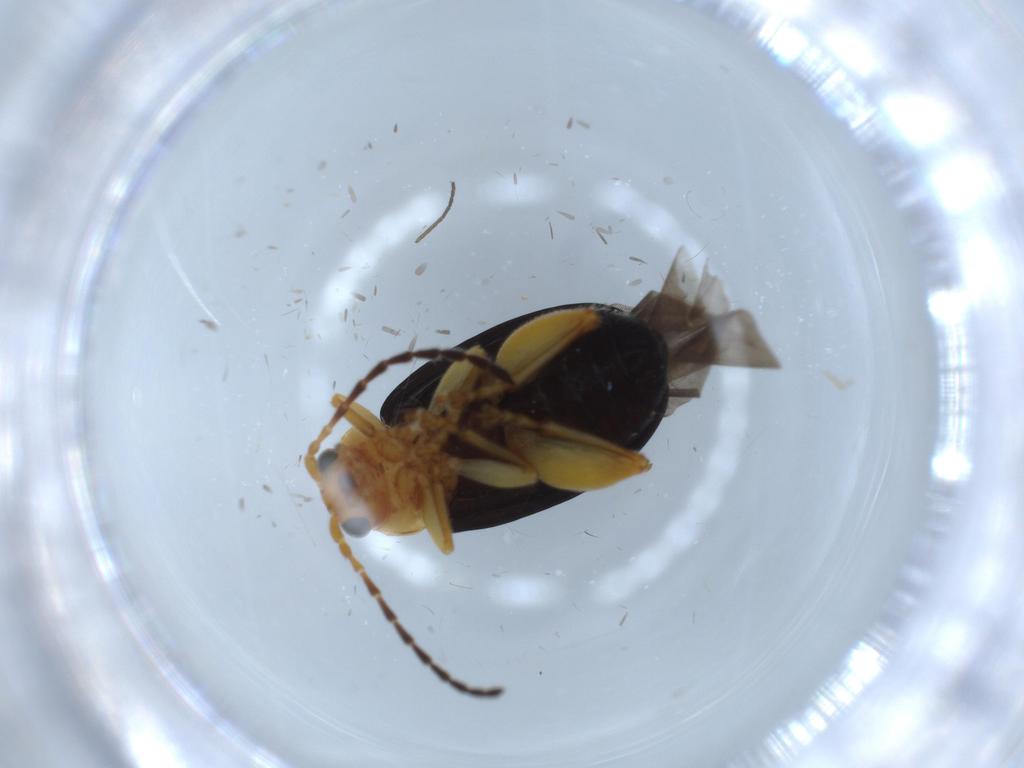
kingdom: Animalia
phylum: Arthropoda
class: Insecta
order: Coleoptera
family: Chrysomelidae
